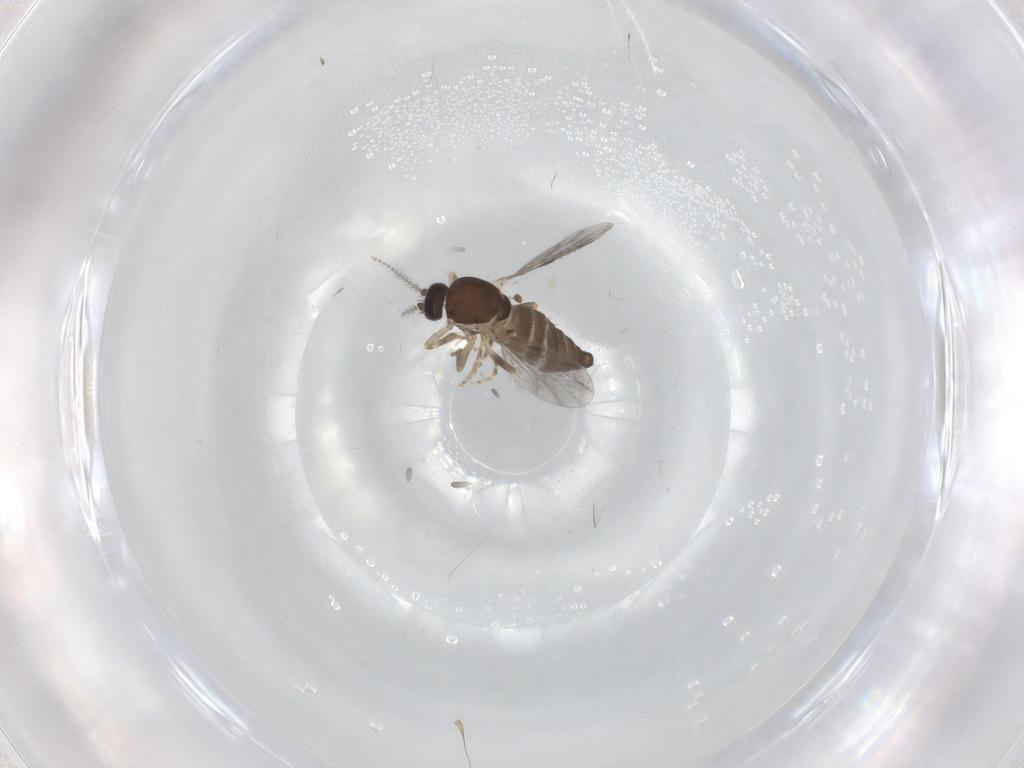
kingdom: Animalia
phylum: Arthropoda
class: Insecta
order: Diptera
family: Ceratopogonidae
